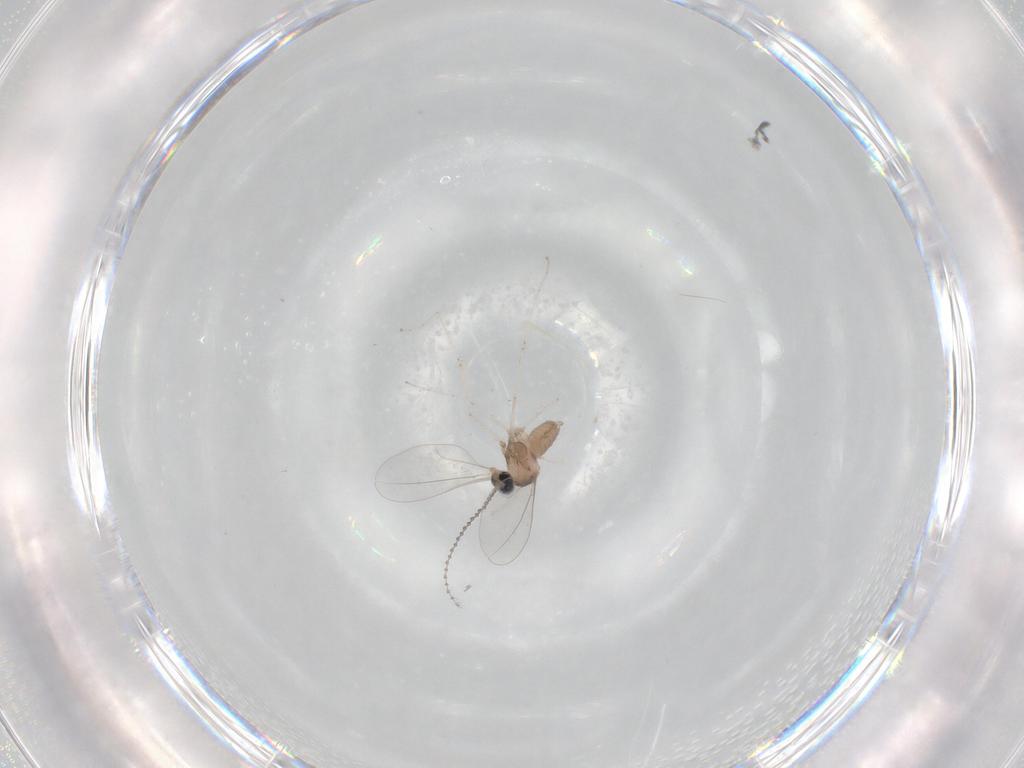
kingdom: Animalia
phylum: Arthropoda
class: Insecta
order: Diptera
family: Cecidomyiidae
